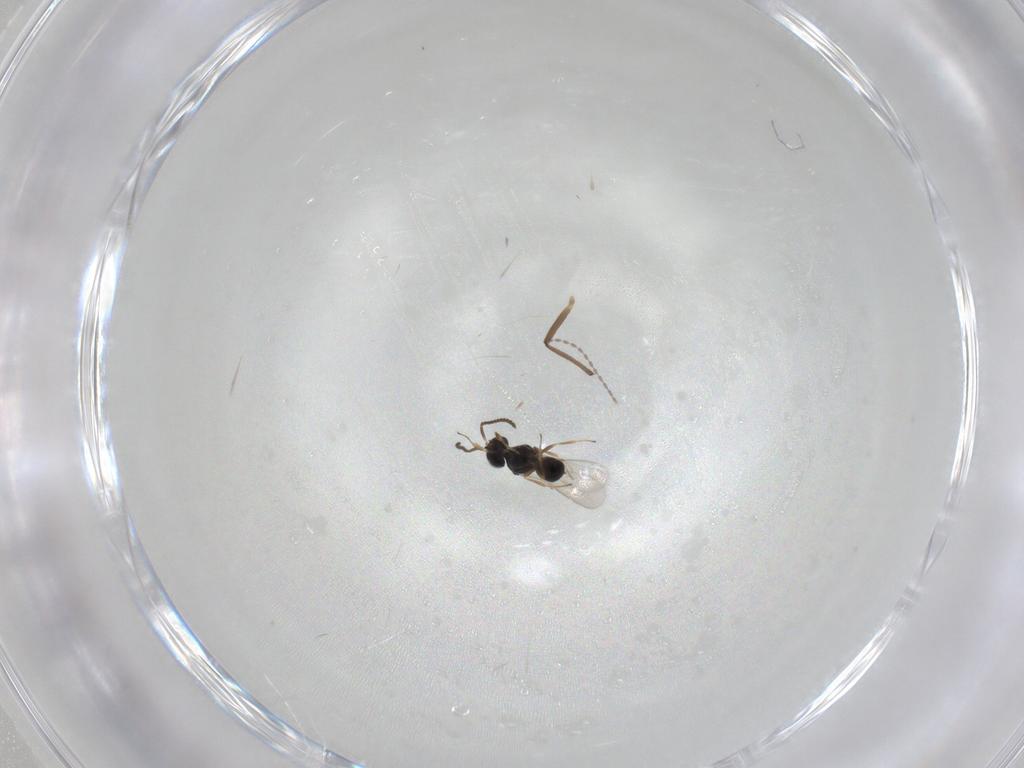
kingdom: Animalia
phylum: Arthropoda
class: Insecta
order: Hymenoptera
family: Scelionidae
